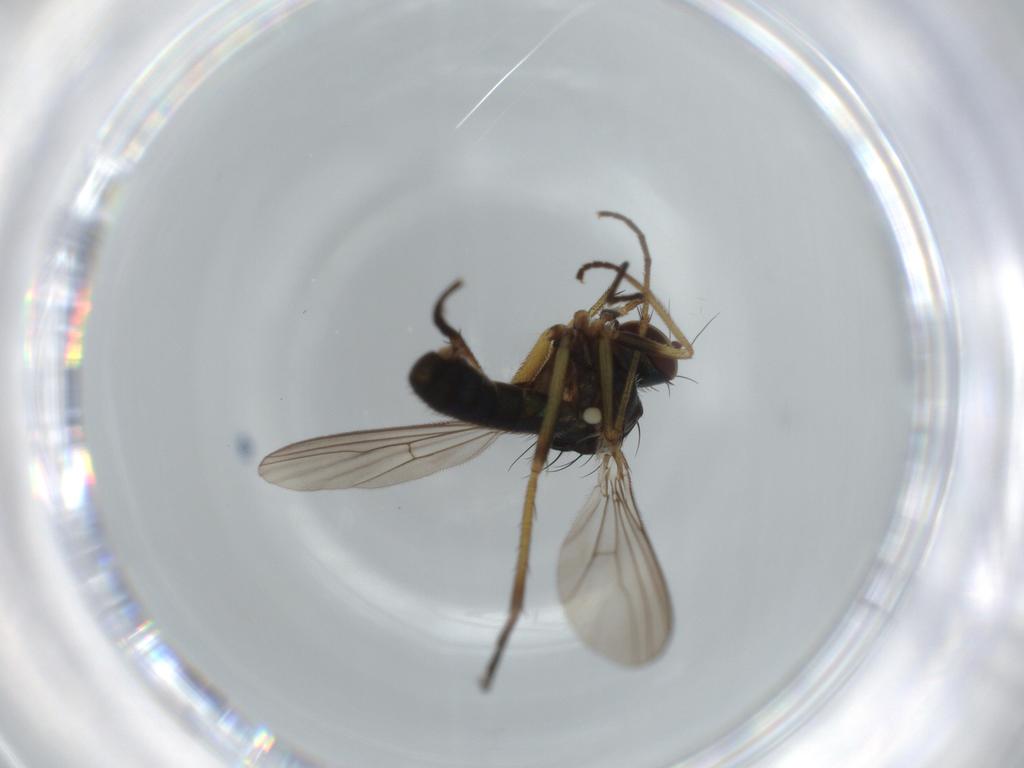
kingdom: Animalia
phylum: Arthropoda
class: Insecta
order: Diptera
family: Dolichopodidae
